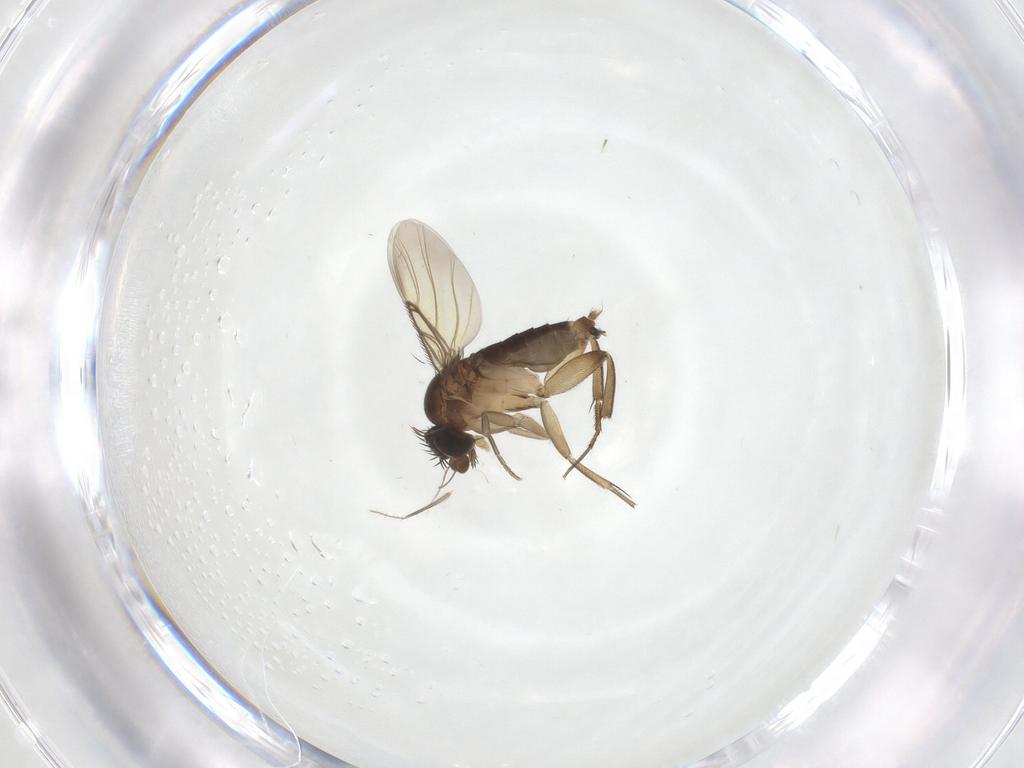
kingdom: Animalia
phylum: Arthropoda
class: Insecta
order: Diptera
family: Phoridae
